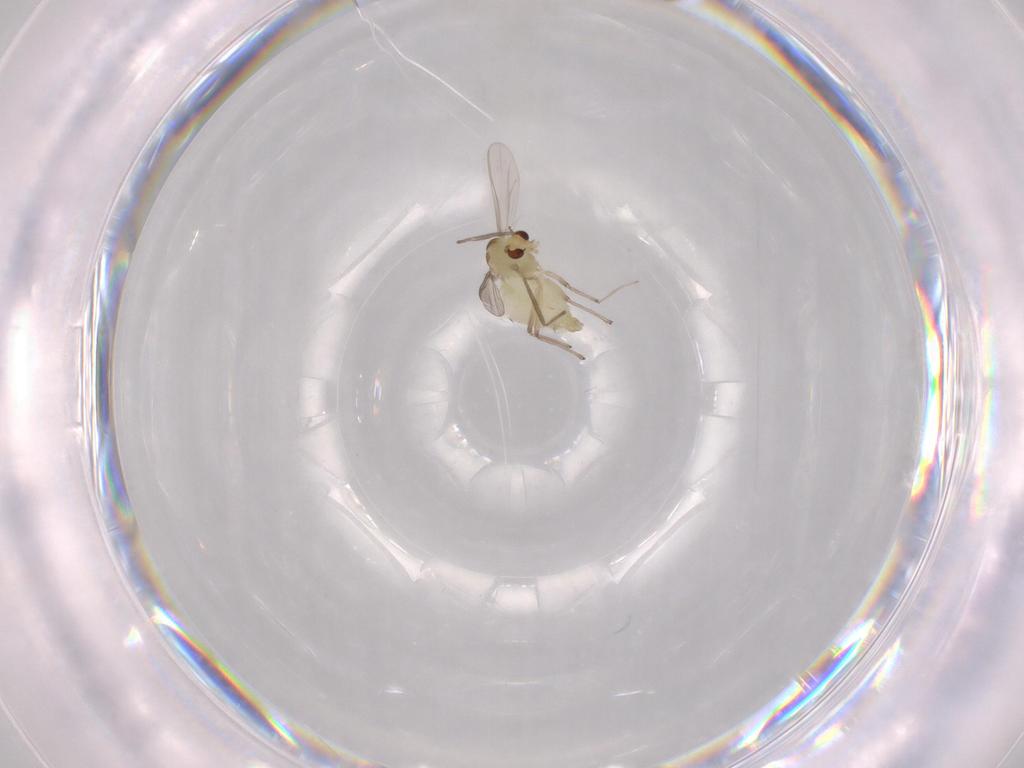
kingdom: Animalia
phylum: Arthropoda
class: Insecta
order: Diptera
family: Chironomidae
